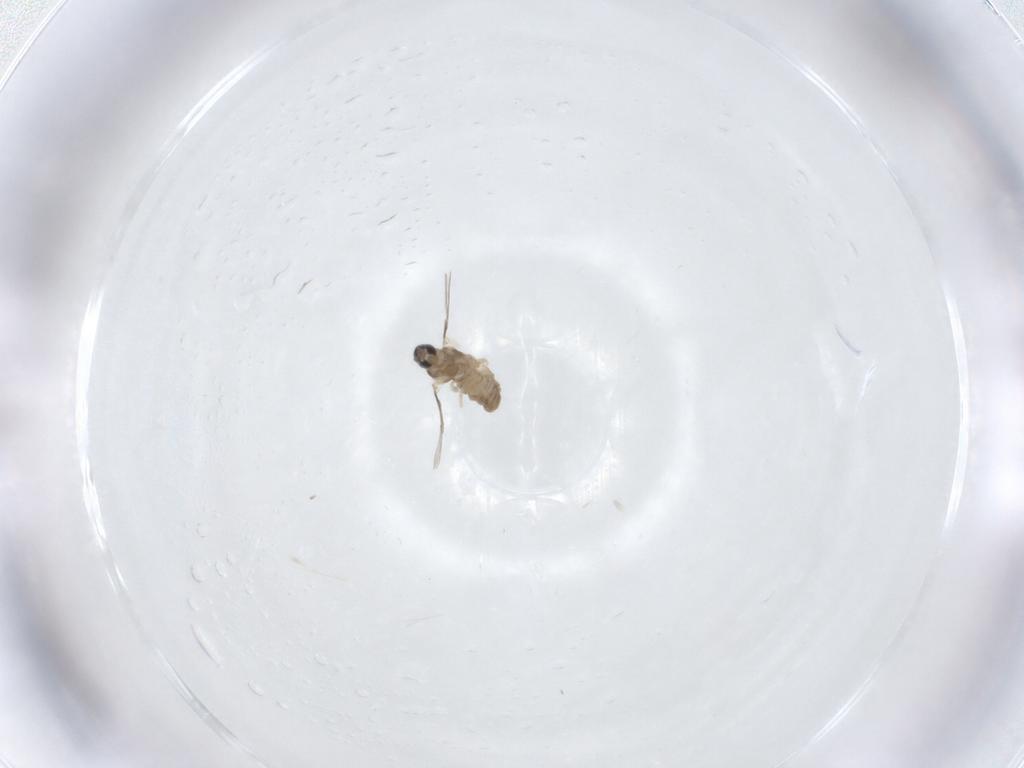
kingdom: Animalia
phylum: Arthropoda
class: Insecta
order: Diptera
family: Cecidomyiidae
